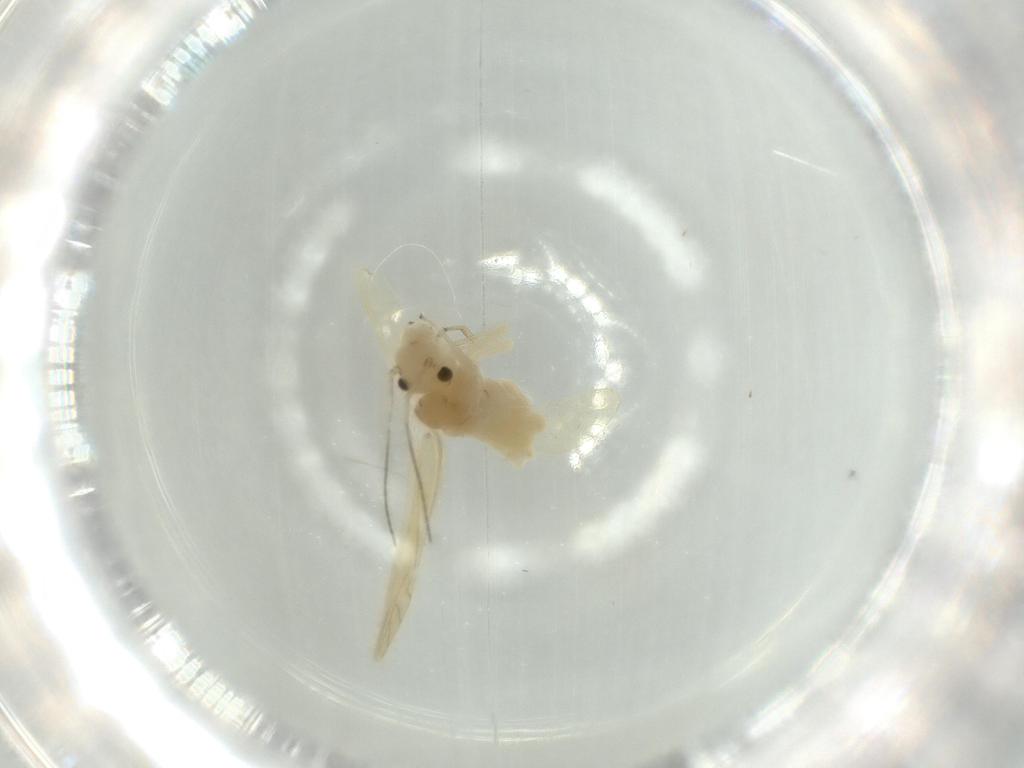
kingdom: Animalia
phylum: Arthropoda
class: Insecta
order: Psocodea
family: Caeciliusidae
